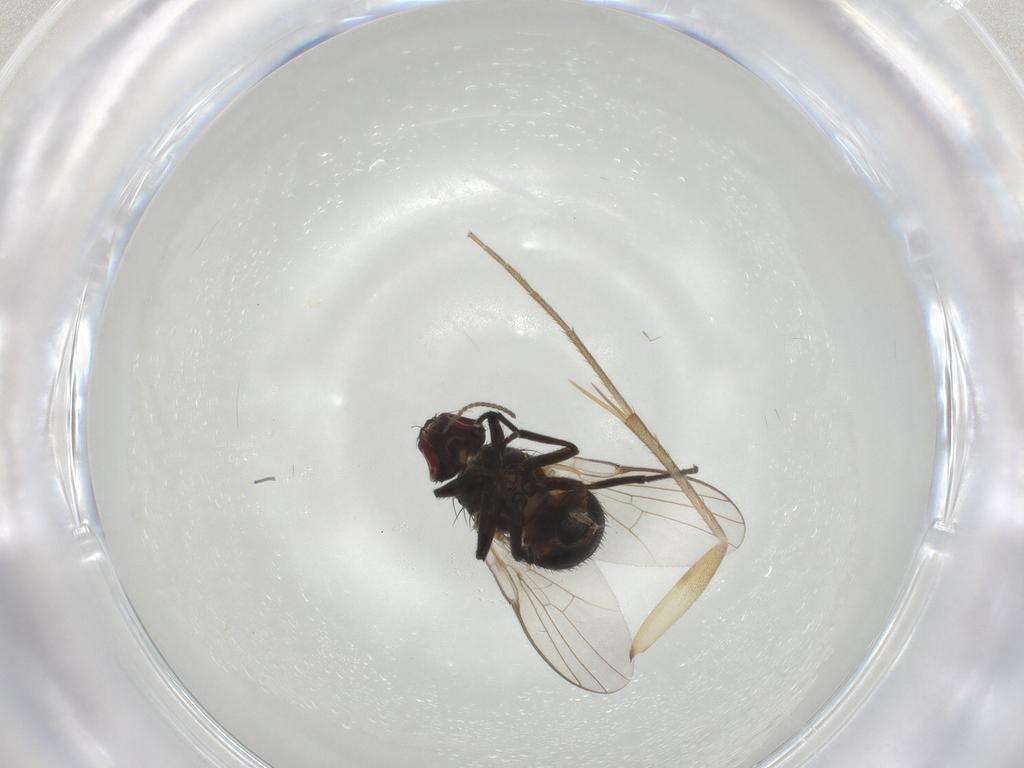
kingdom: Animalia
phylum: Arthropoda
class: Insecta
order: Diptera
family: Agromyzidae
